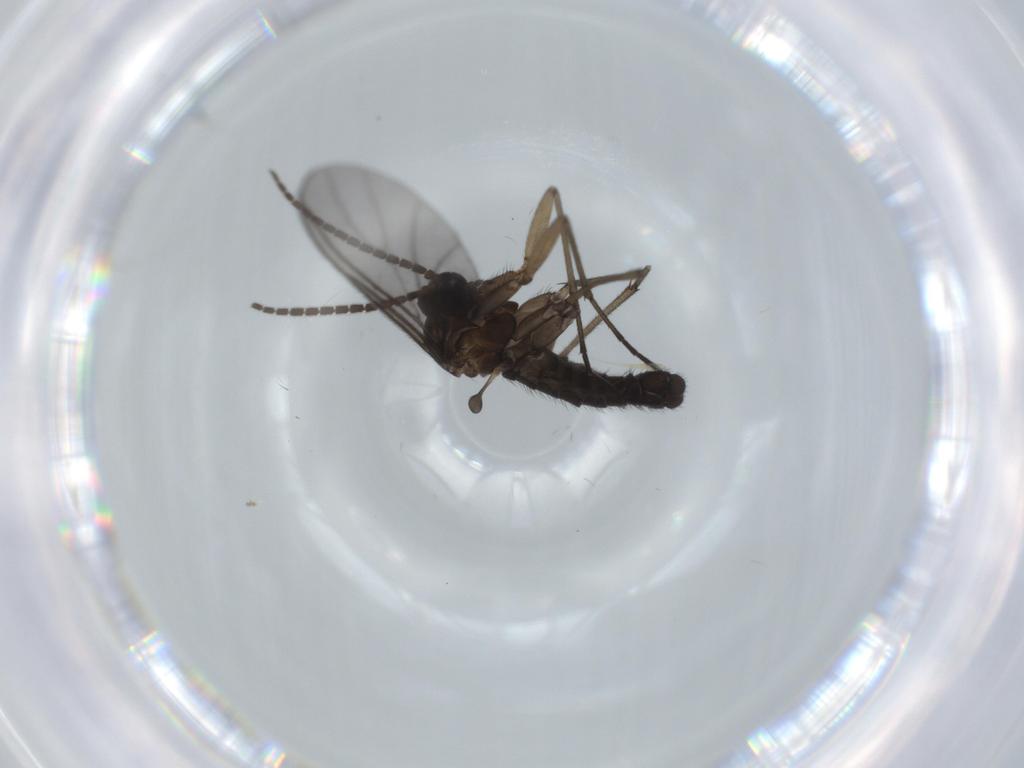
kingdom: Animalia
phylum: Arthropoda
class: Insecta
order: Diptera
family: Sciaridae
